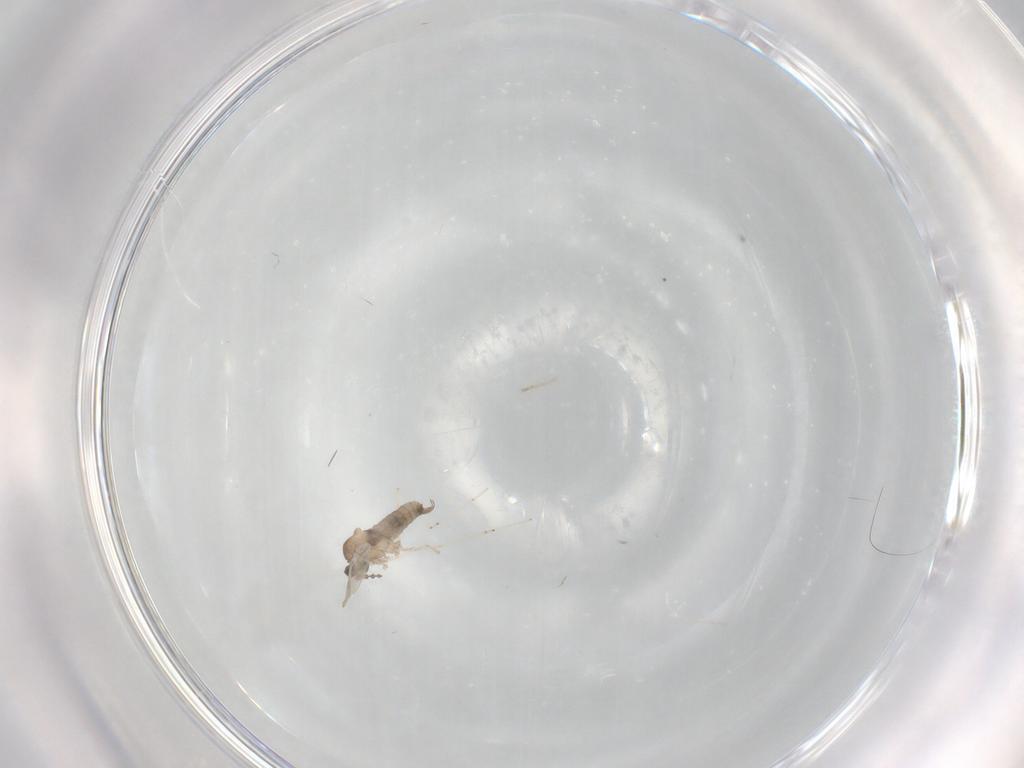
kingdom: Animalia
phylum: Arthropoda
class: Insecta
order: Diptera
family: Cecidomyiidae
